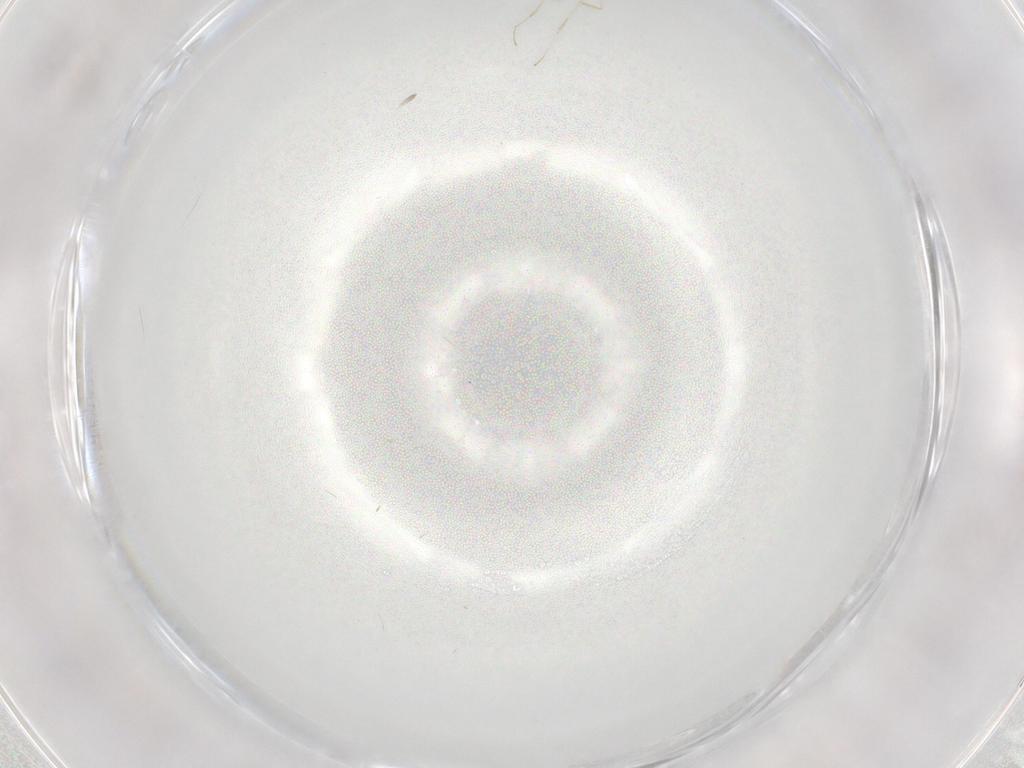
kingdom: Animalia
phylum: Arthropoda
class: Insecta
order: Diptera
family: Cecidomyiidae
